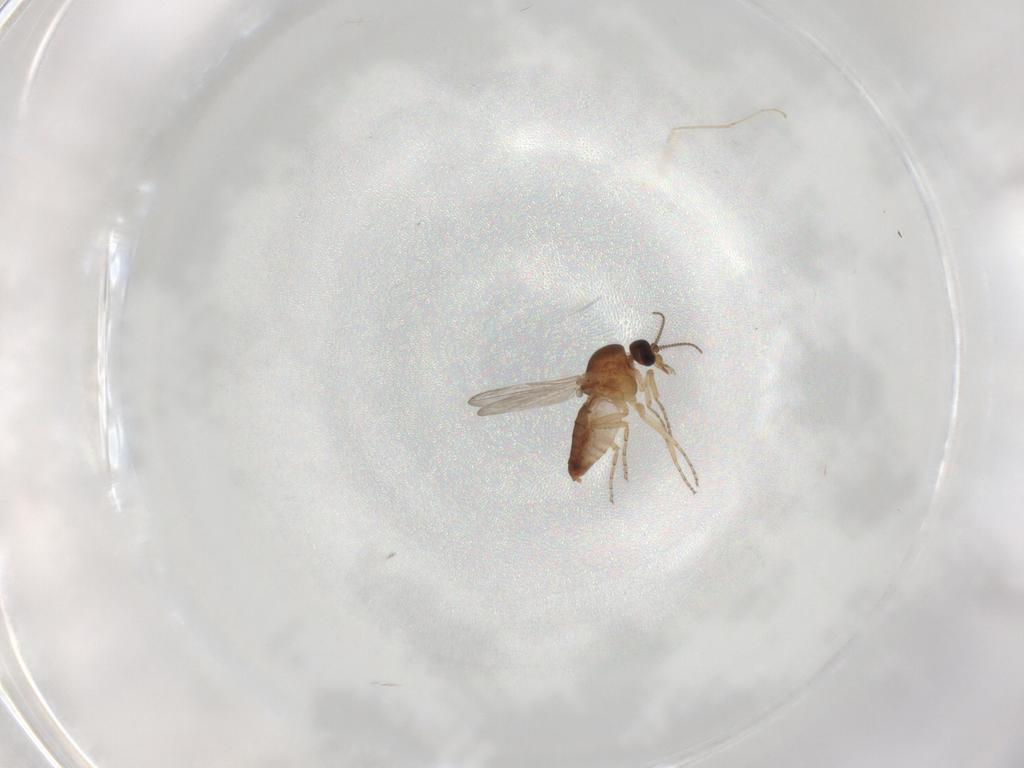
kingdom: Animalia
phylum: Arthropoda
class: Insecta
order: Diptera
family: Ceratopogonidae
